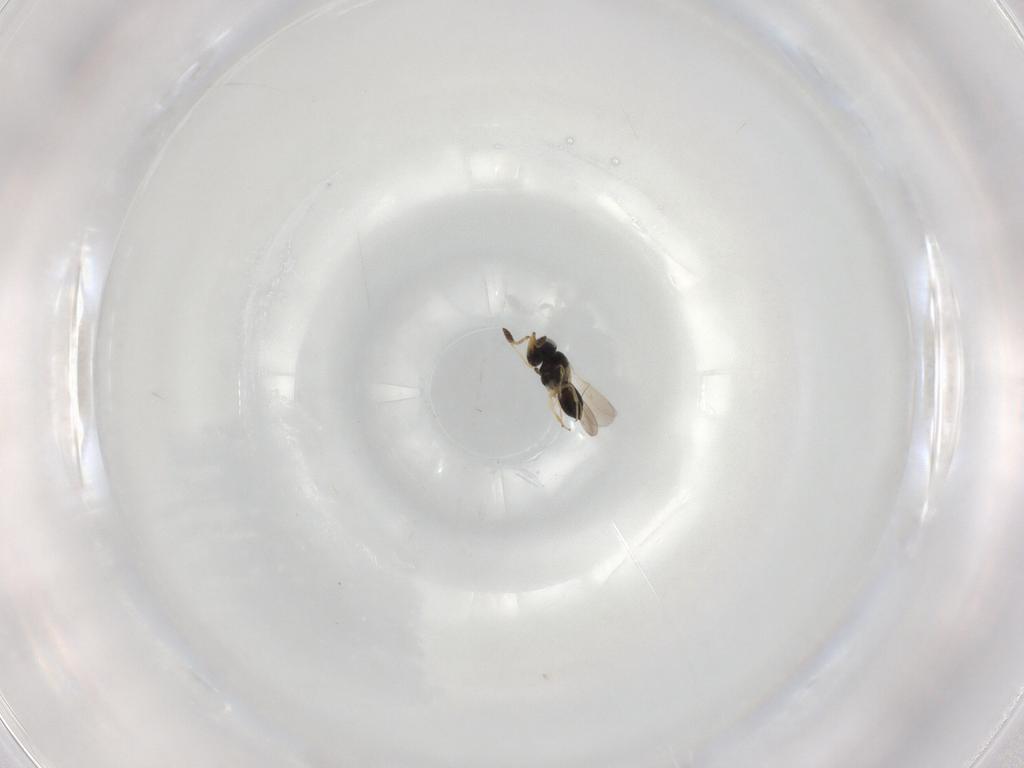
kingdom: Animalia
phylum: Arthropoda
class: Insecta
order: Hymenoptera
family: Scelionidae
